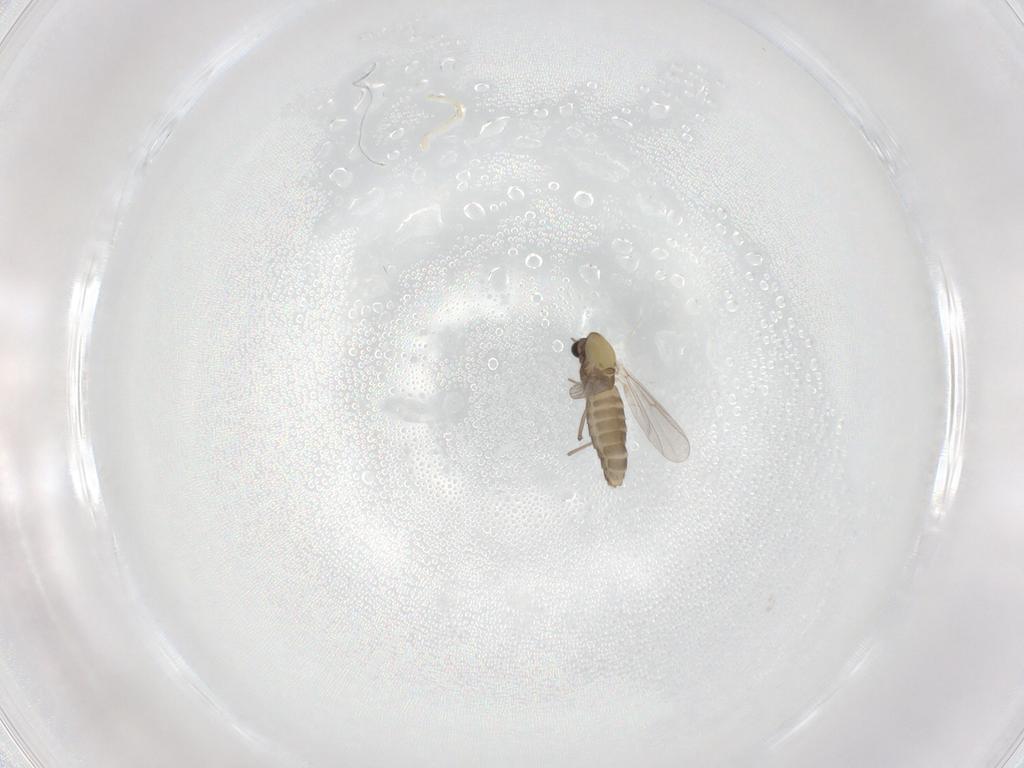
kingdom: Animalia
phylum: Arthropoda
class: Insecta
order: Diptera
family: Chironomidae
